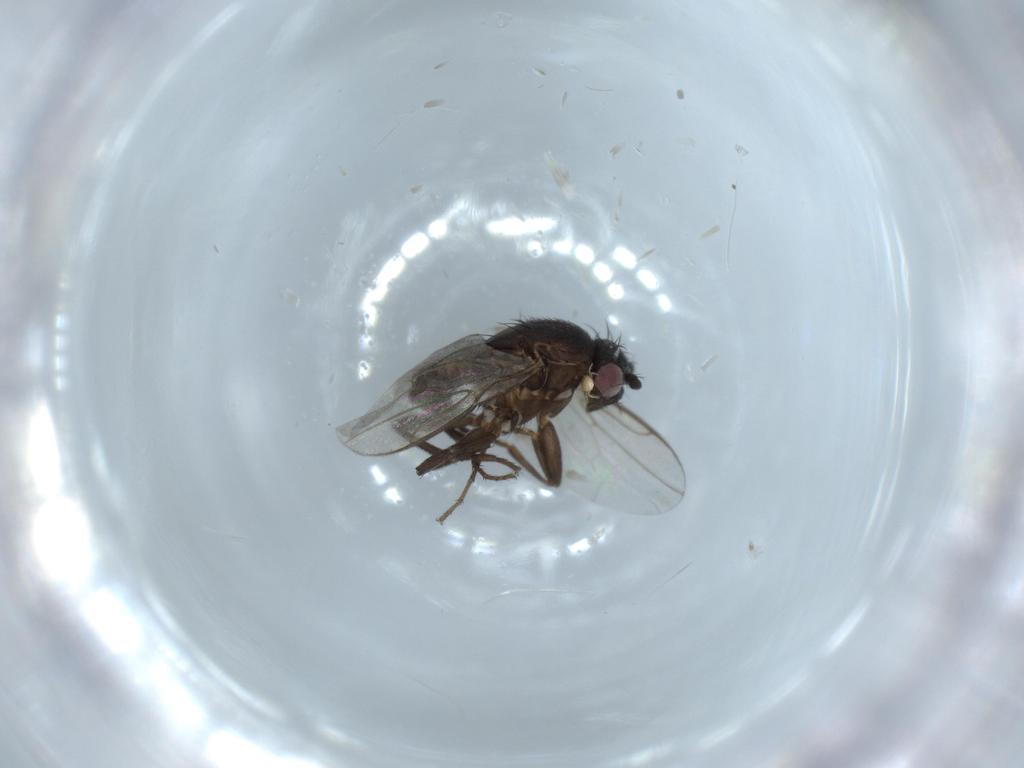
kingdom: Animalia
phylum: Arthropoda
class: Insecta
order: Diptera
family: Sphaeroceridae
